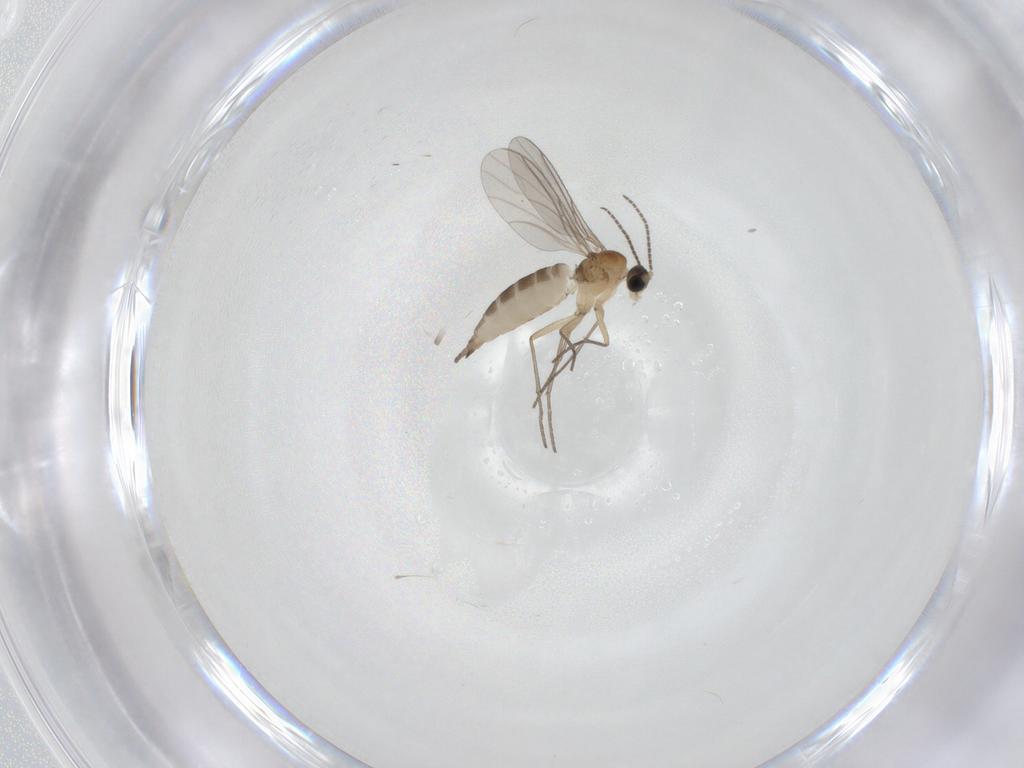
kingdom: Animalia
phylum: Arthropoda
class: Insecta
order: Diptera
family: Sciaridae
